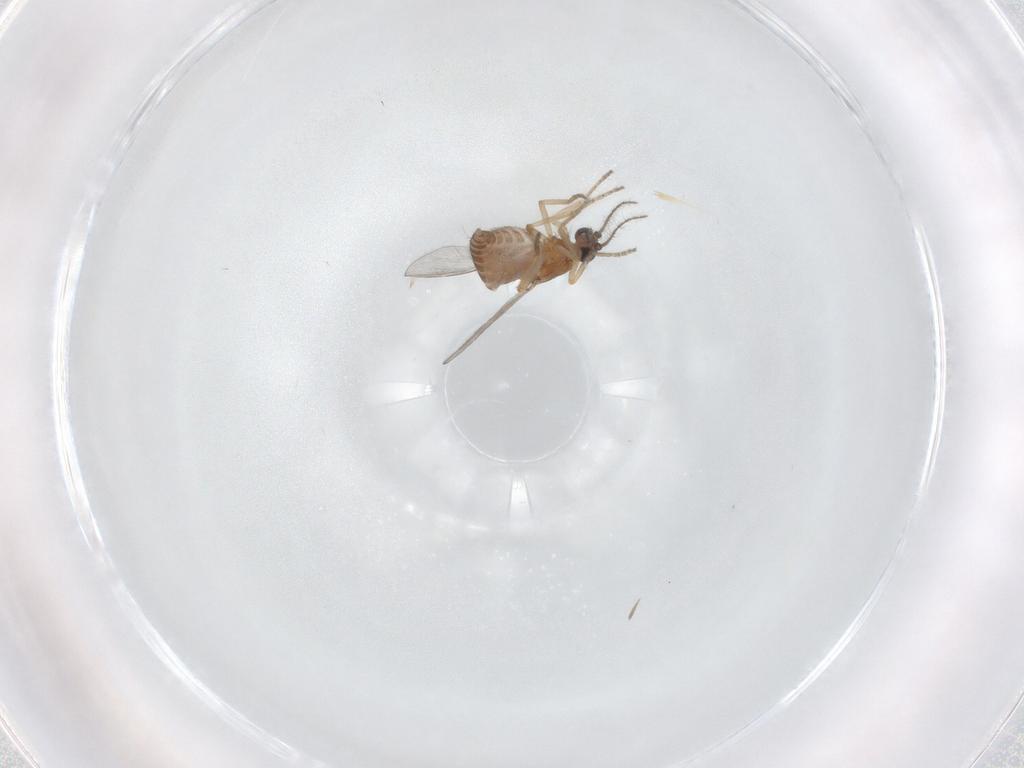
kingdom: Animalia
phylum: Arthropoda
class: Insecta
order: Diptera
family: Ceratopogonidae
